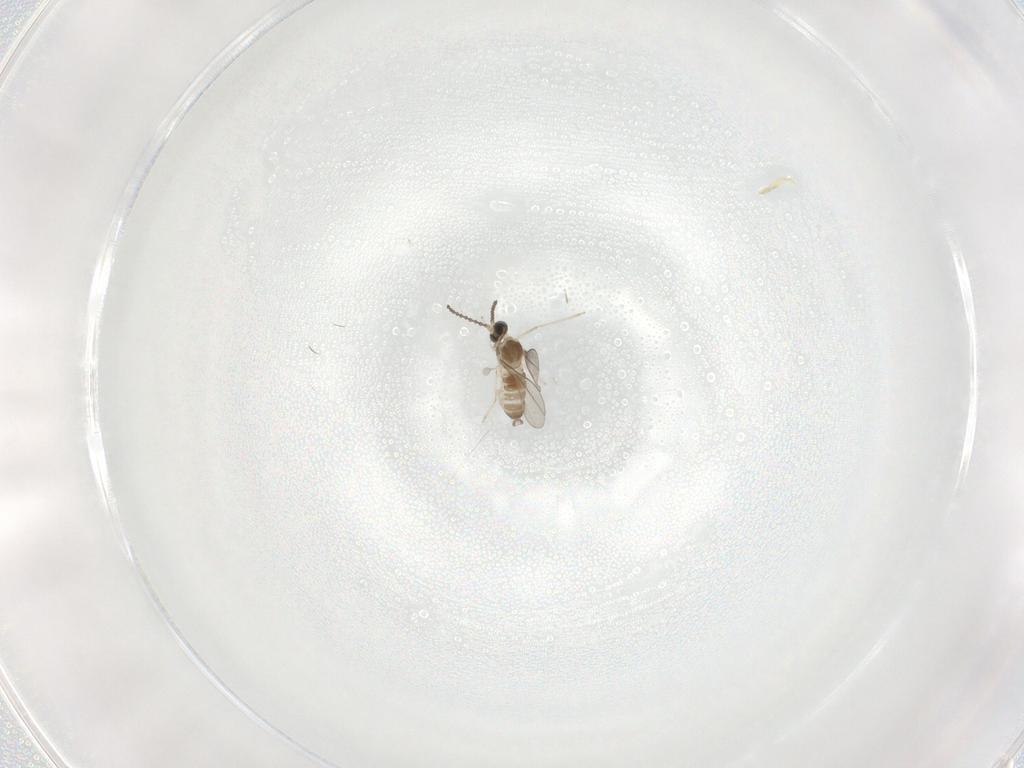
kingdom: Animalia
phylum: Arthropoda
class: Insecta
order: Diptera
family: Cecidomyiidae
